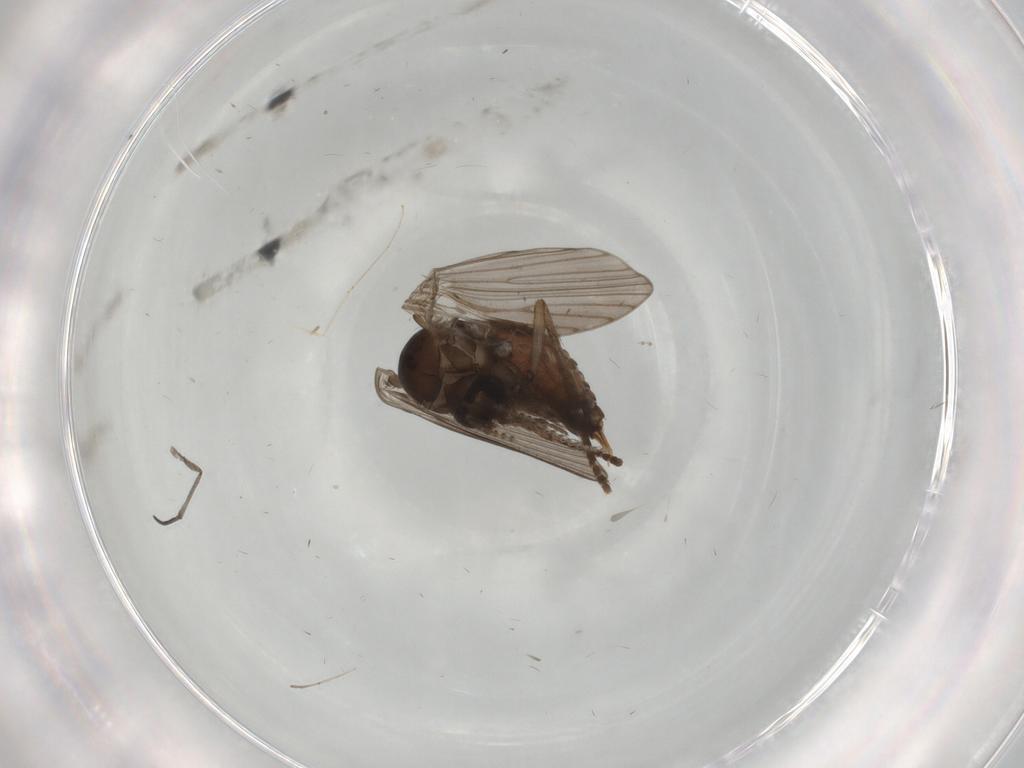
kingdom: Animalia
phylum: Arthropoda
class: Insecta
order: Diptera
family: Psychodidae
